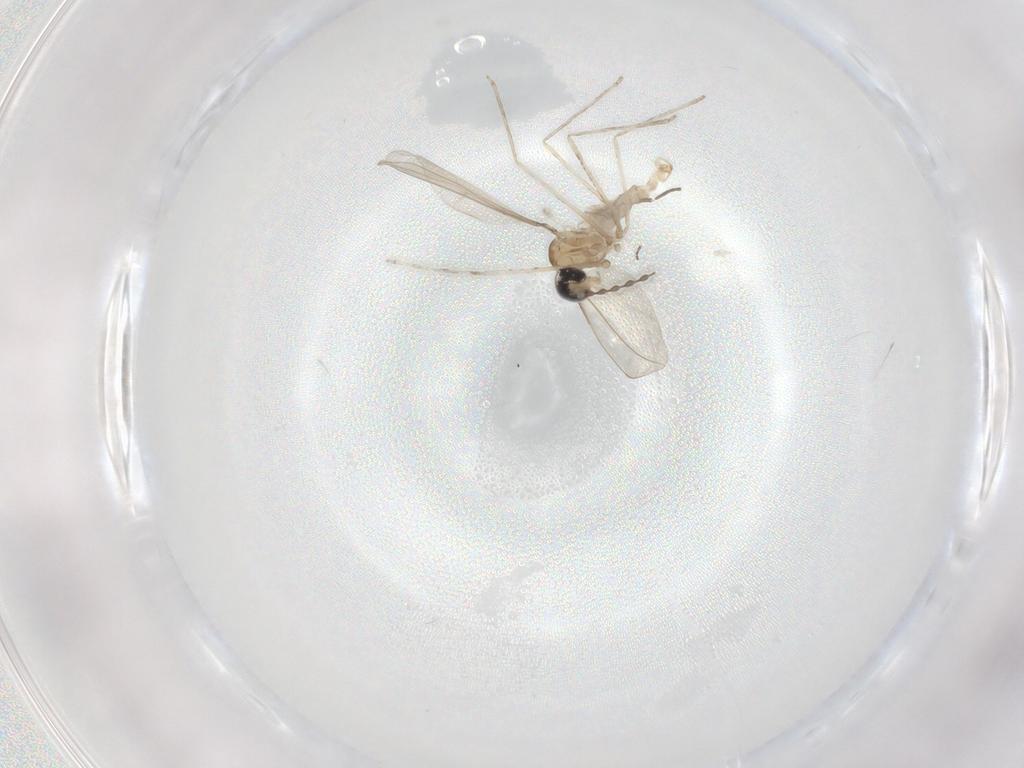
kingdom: Animalia
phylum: Arthropoda
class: Insecta
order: Diptera
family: Cecidomyiidae
